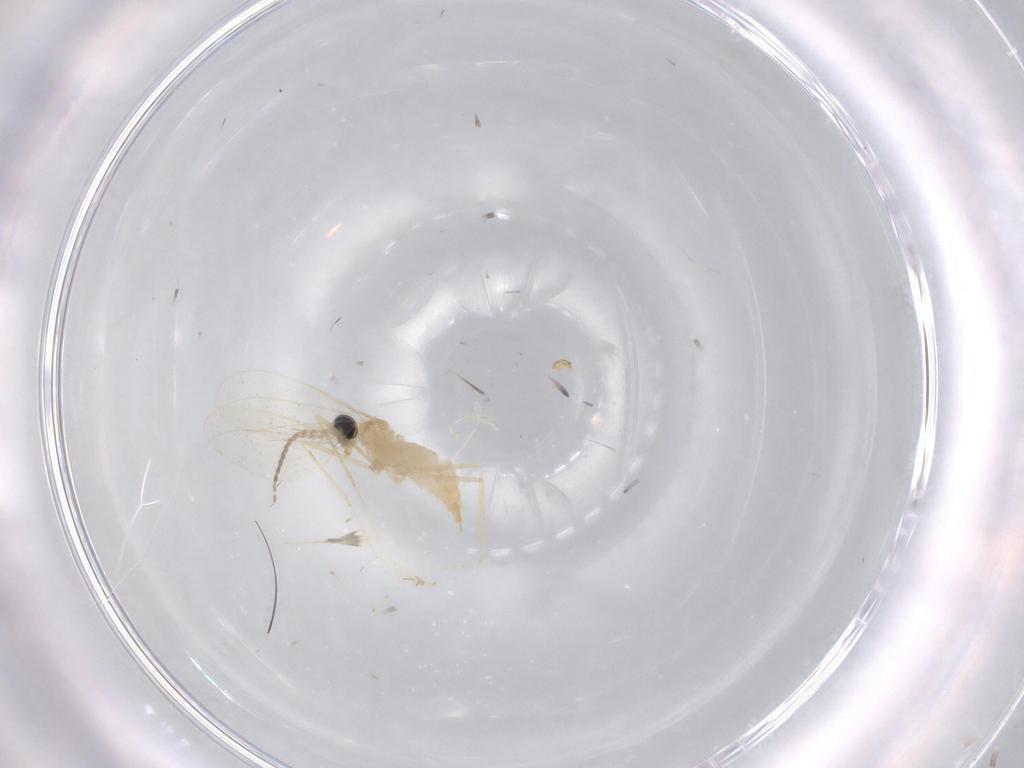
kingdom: Animalia
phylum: Arthropoda
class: Insecta
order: Diptera
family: Cecidomyiidae
